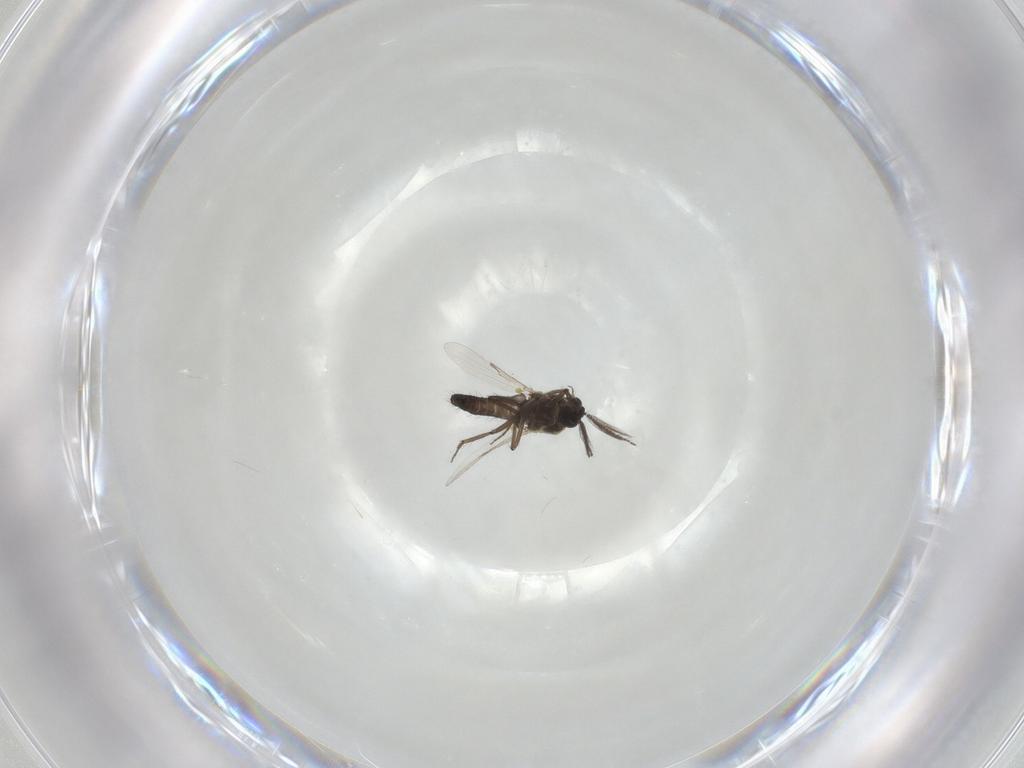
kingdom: Animalia
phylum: Arthropoda
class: Insecta
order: Diptera
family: Ceratopogonidae
